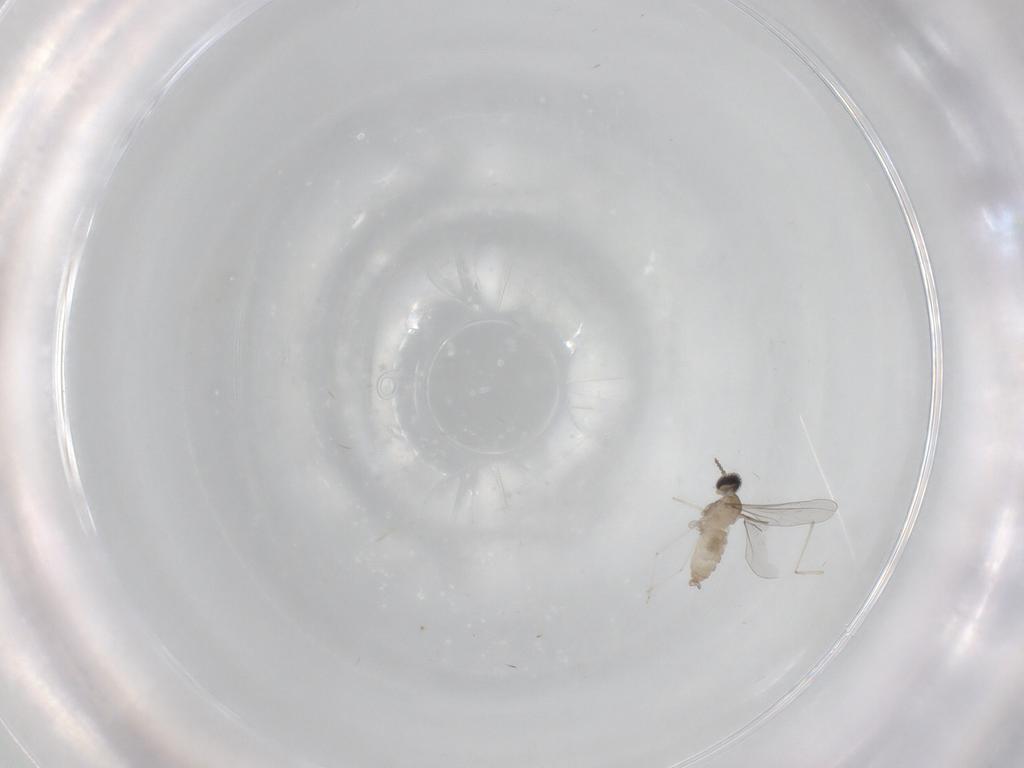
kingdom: Animalia
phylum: Arthropoda
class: Insecta
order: Diptera
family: Cecidomyiidae
